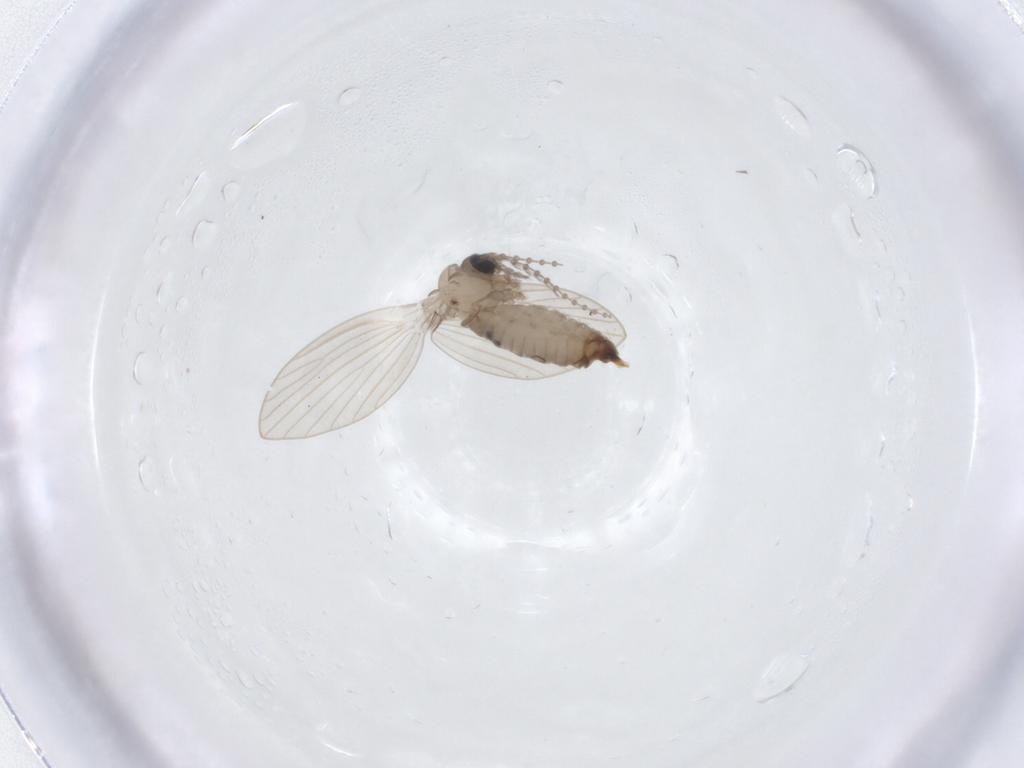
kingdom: Animalia
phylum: Arthropoda
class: Insecta
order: Diptera
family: Psychodidae
